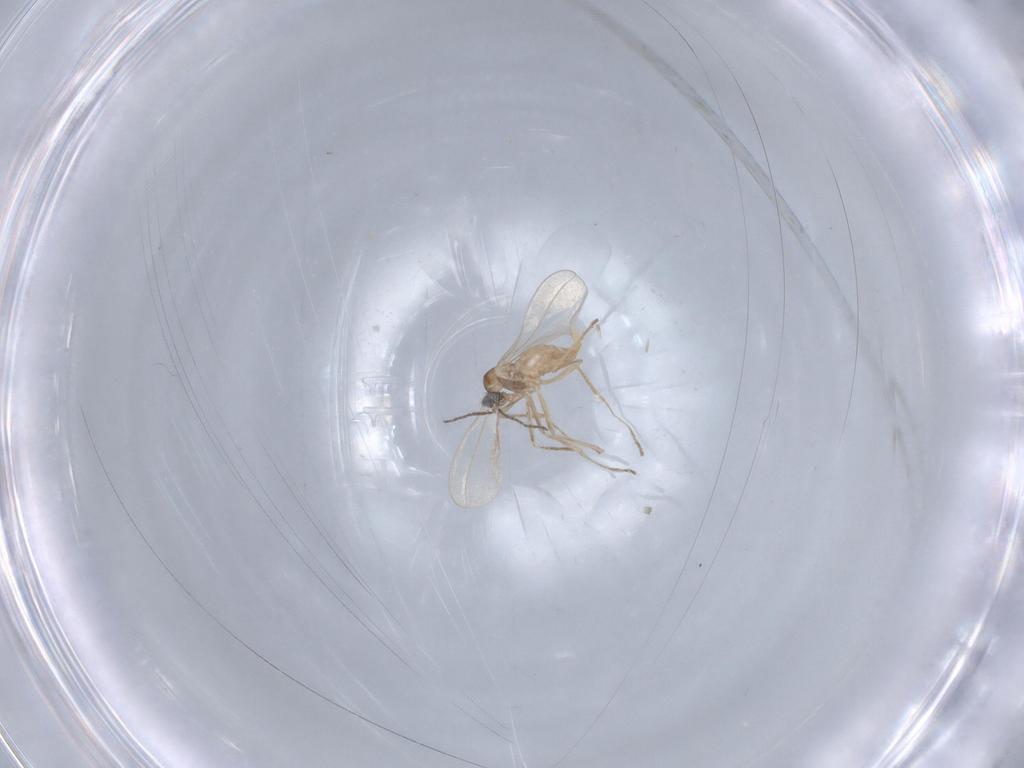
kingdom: Animalia
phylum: Arthropoda
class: Insecta
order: Diptera
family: Cecidomyiidae
